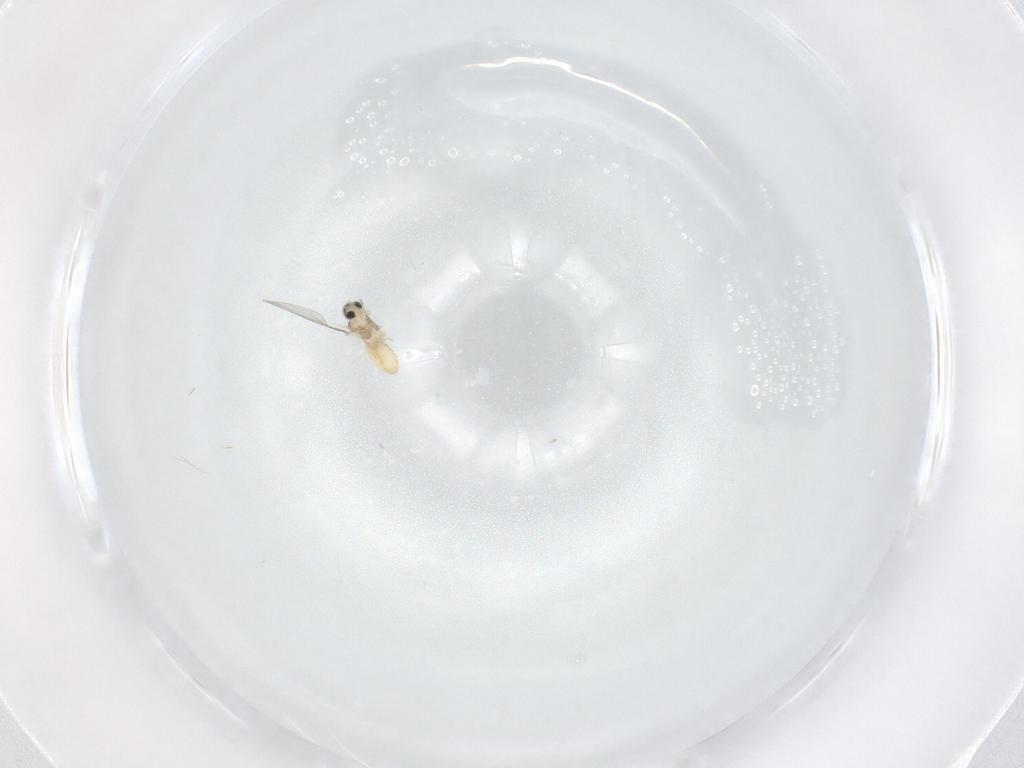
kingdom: Animalia
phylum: Arthropoda
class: Insecta
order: Diptera
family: Cecidomyiidae
